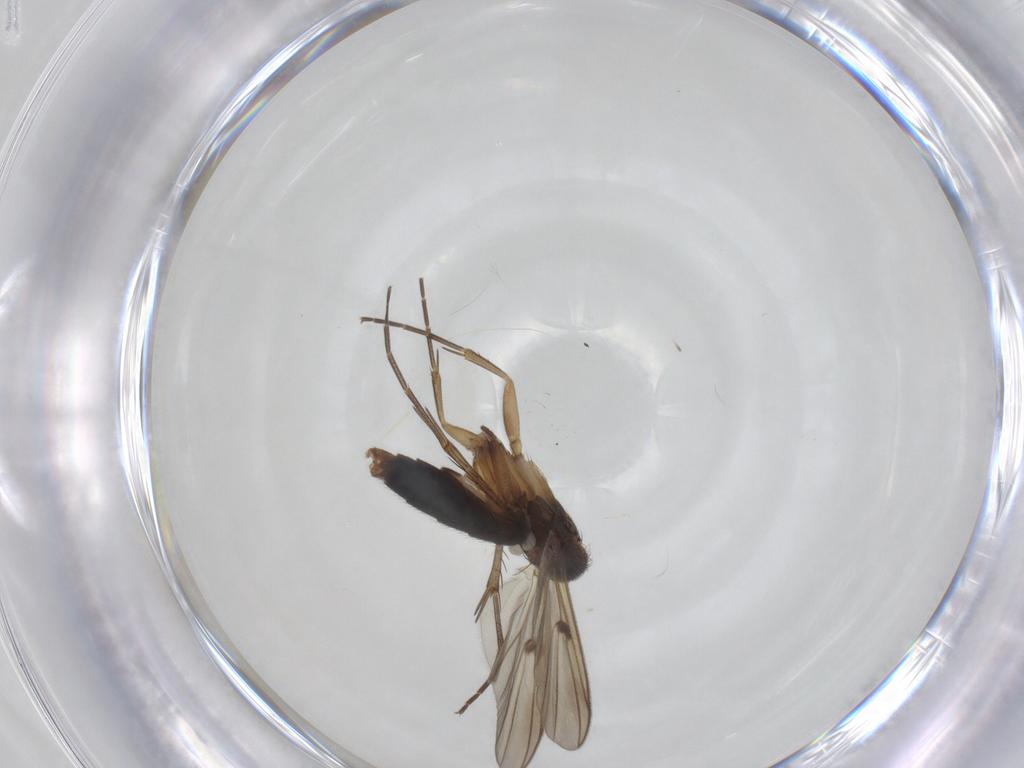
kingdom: Animalia
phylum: Arthropoda
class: Insecta
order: Diptera
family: Mycetophilidae
